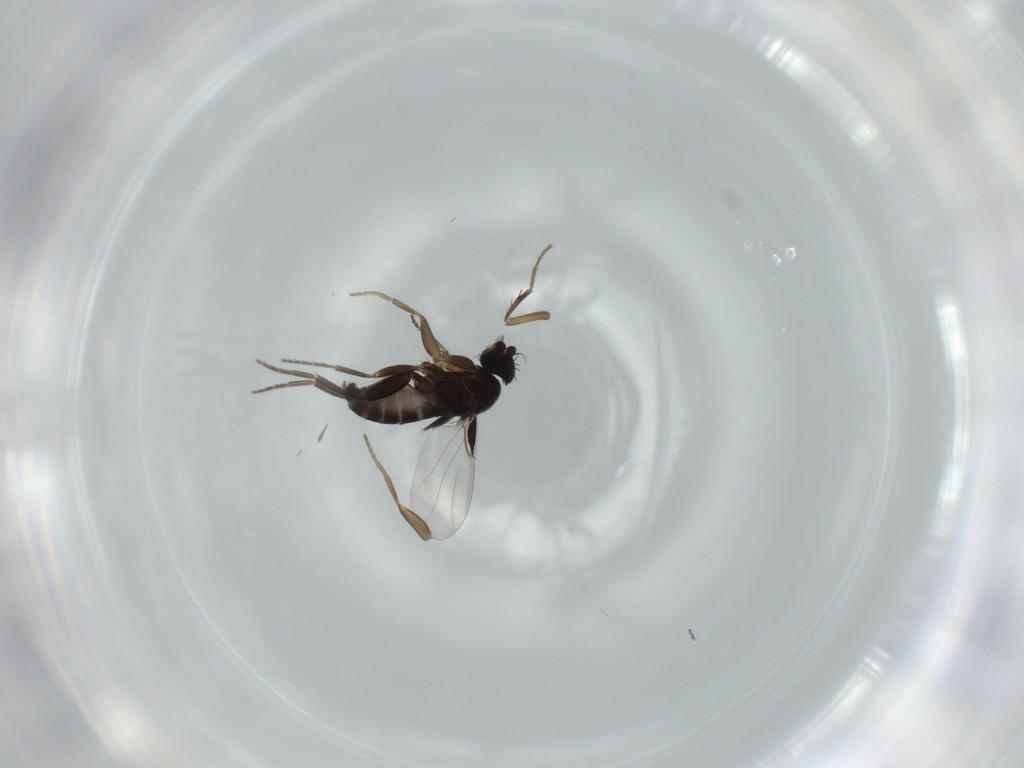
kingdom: Animalia
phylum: Arthropoda
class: Insecta
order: Diptera
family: Phoridae
